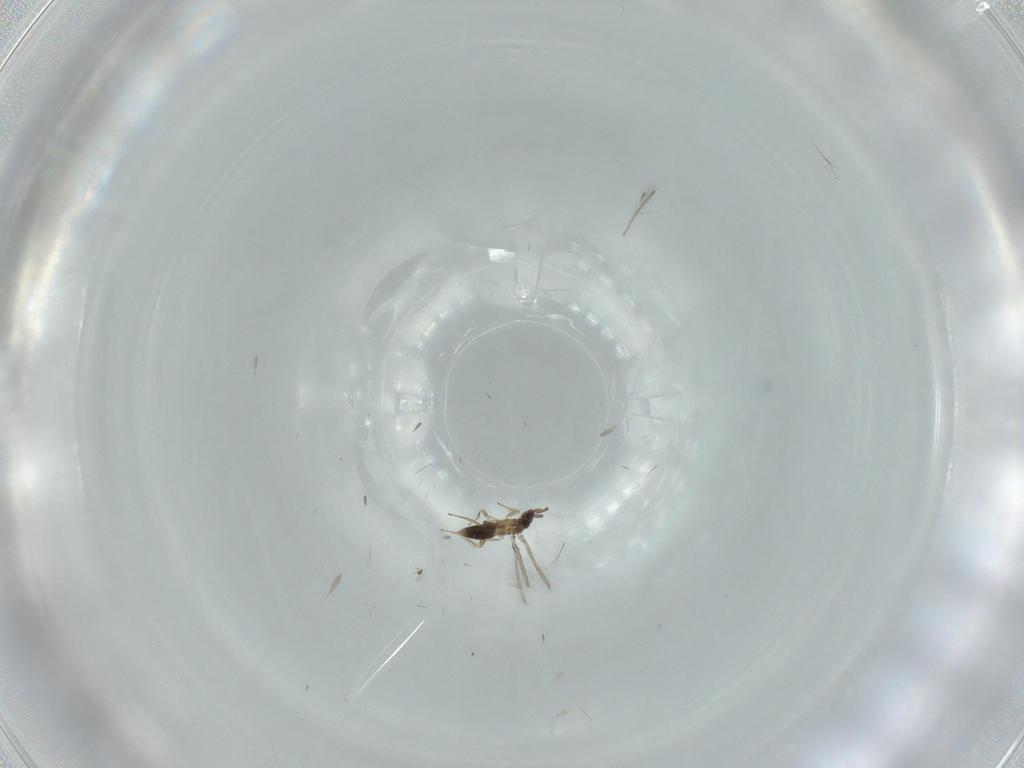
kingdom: Animalia
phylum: Arthropoda
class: Insecta
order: Hymenoptera
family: Mymaridae
